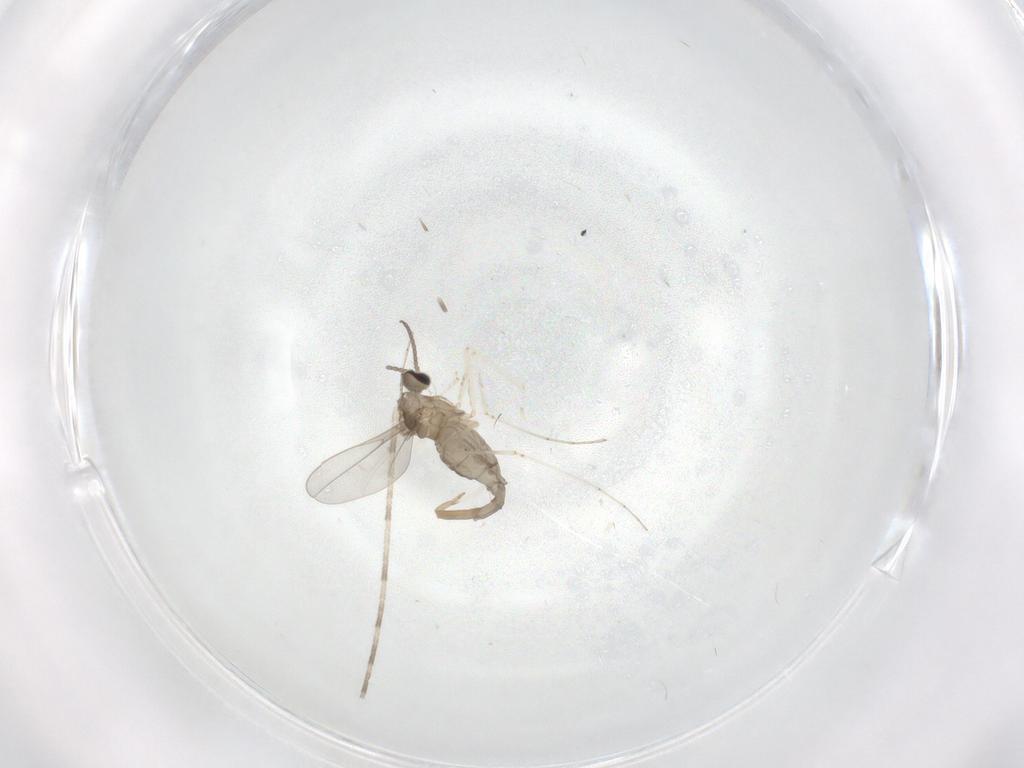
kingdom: Animalia
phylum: Arthropoda
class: Insecta
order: Diptera
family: Cecidomyiidae
